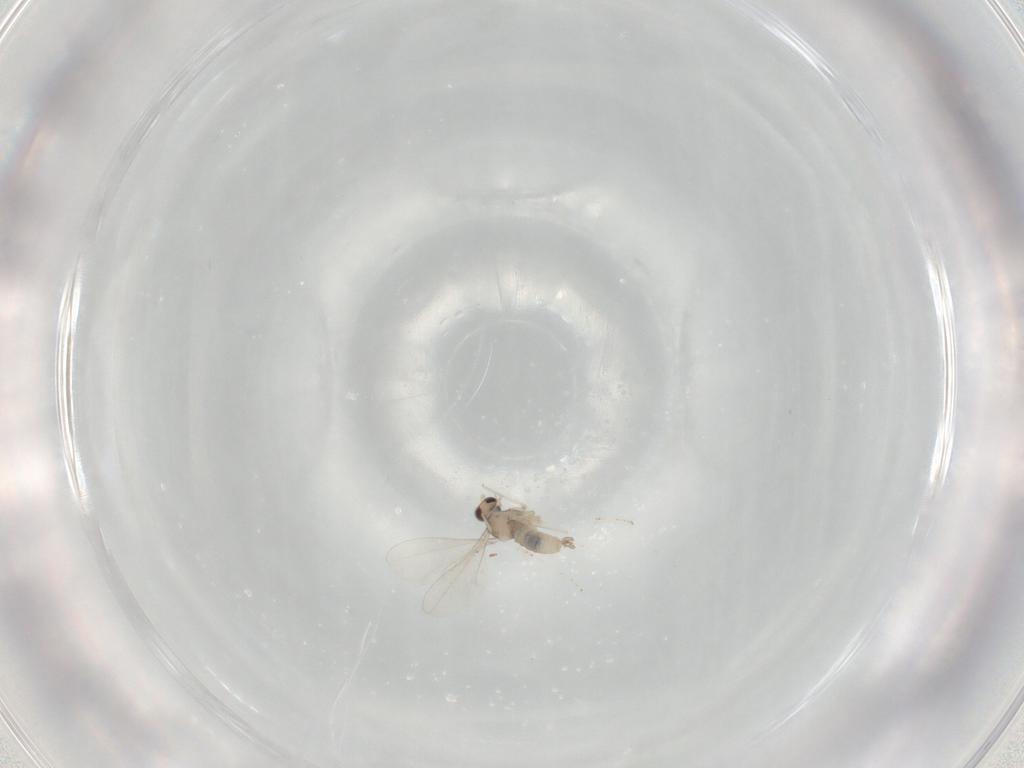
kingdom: Animalia
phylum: Arthropoda
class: Insecta
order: Diptera
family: Cecidomyiidae
